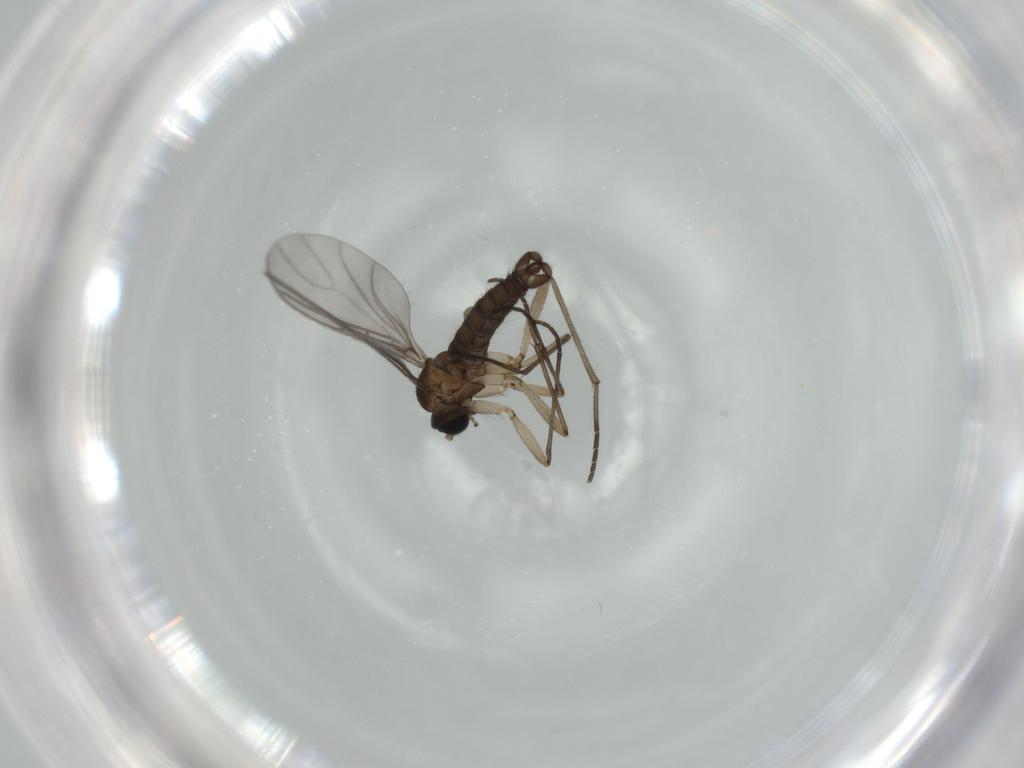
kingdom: Animalia
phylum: Arthropoda
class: Insecta
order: Diptera
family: Sciaridae
